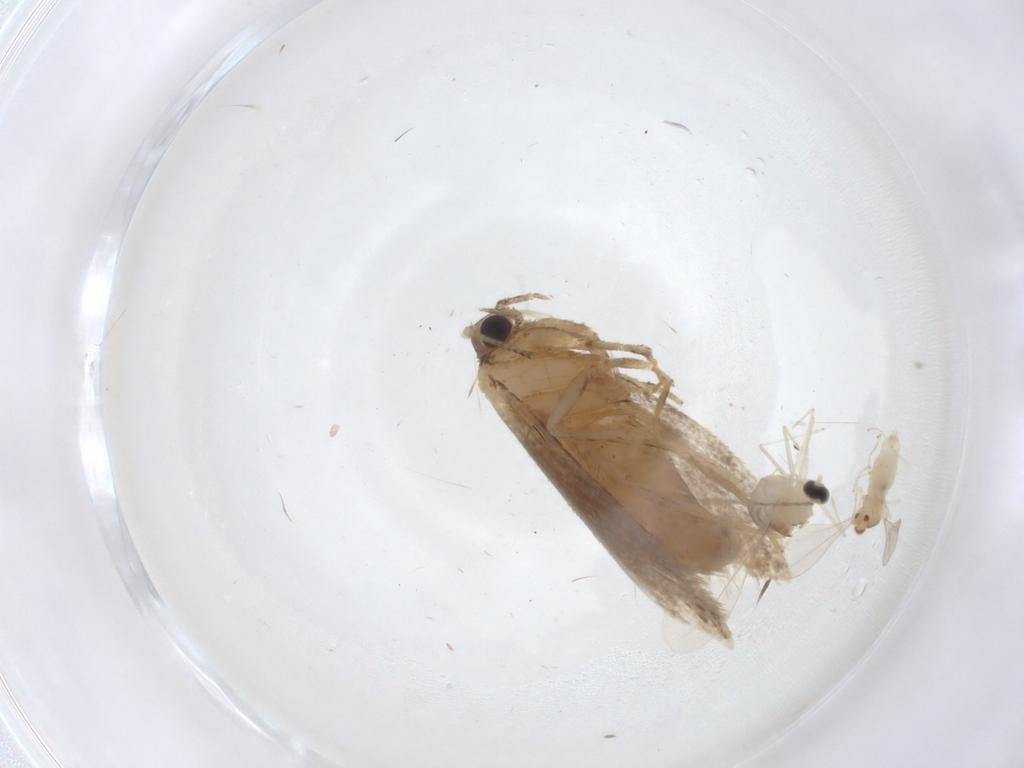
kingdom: Animalia
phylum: Arthropoda
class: Insecta
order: Lepidoptera
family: Tineidae
